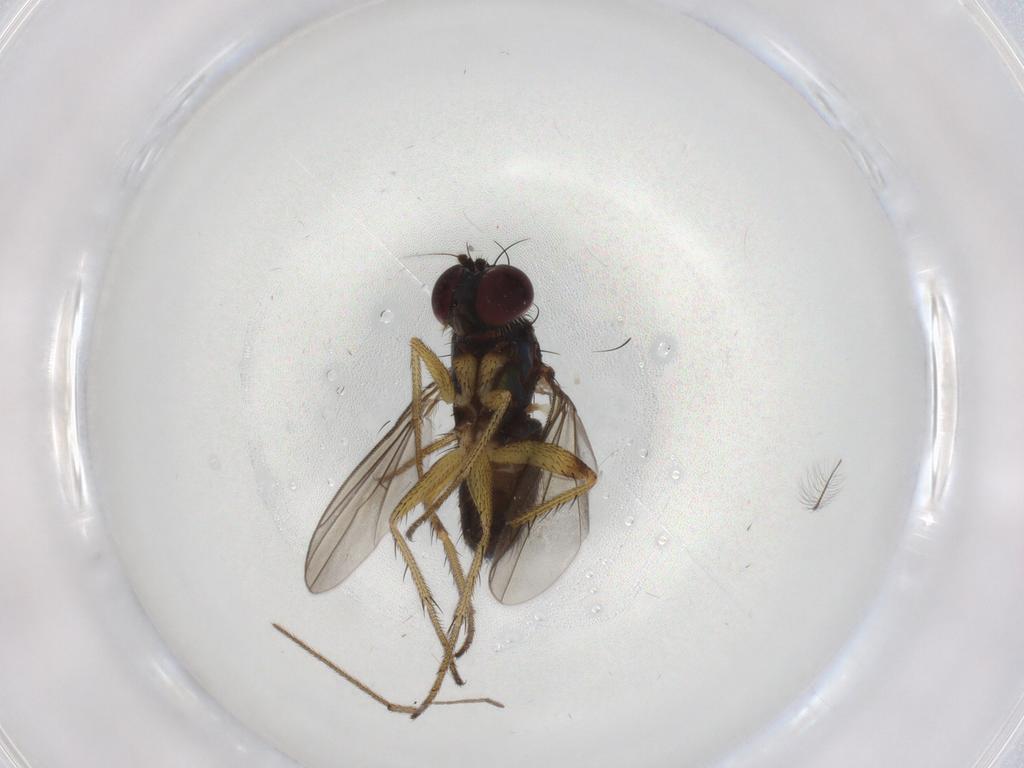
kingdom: Animalia
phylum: Arthropoda
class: Insecta
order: Diptera
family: Dolichopodidae
